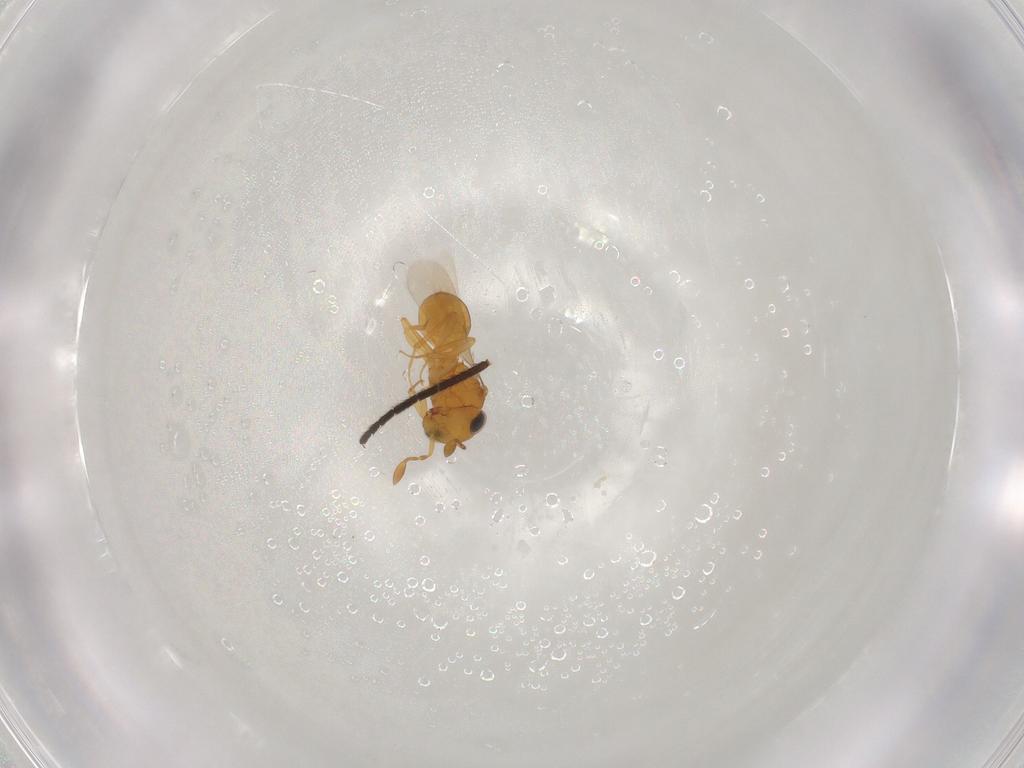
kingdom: Animalia
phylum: Arthropoda
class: Insecta
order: Hymenoptera
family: Scelionidae
